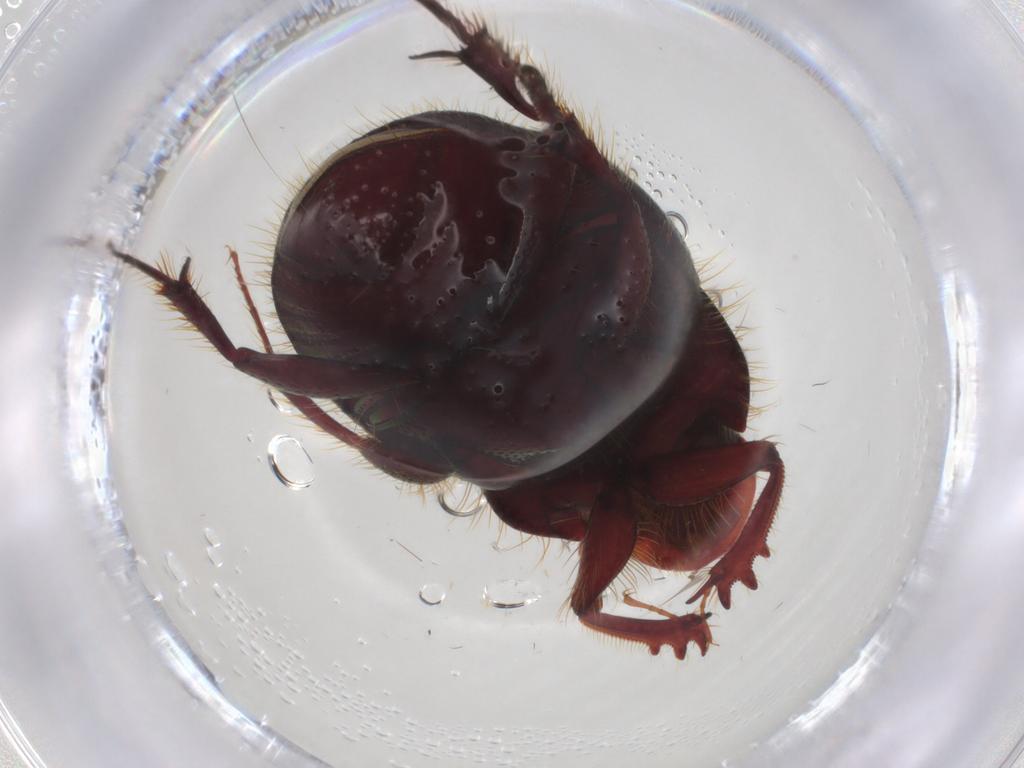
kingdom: Animalia
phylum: Arthropoda
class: Insecta
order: Coleoptera
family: Scarabaeidae
